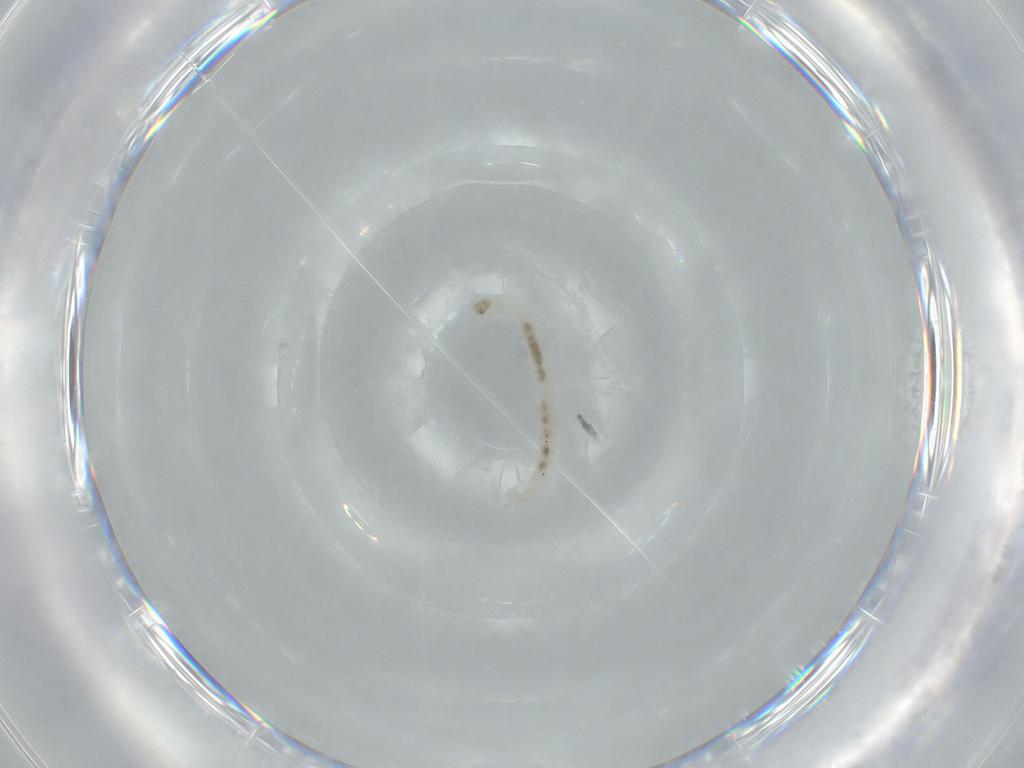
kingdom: Animalia
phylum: Arthropoda
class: Insecta
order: Diptera
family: Chironomidae
